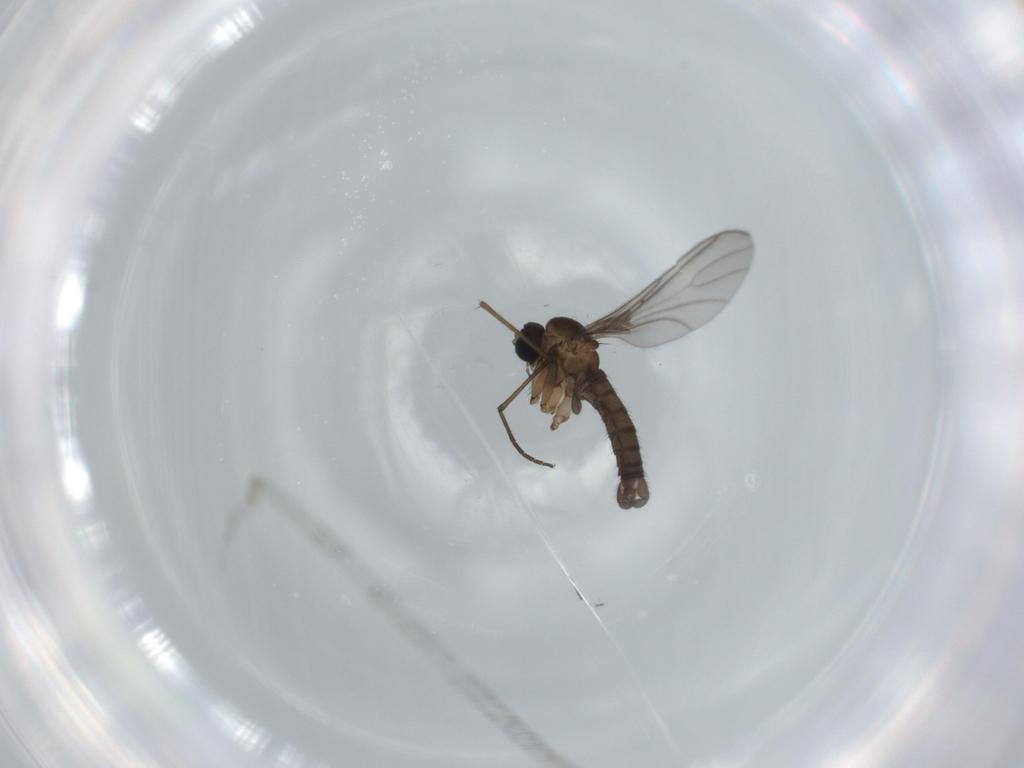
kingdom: Animalia
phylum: Arthropoda
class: Insecta
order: Diptera
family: Sciaridae
